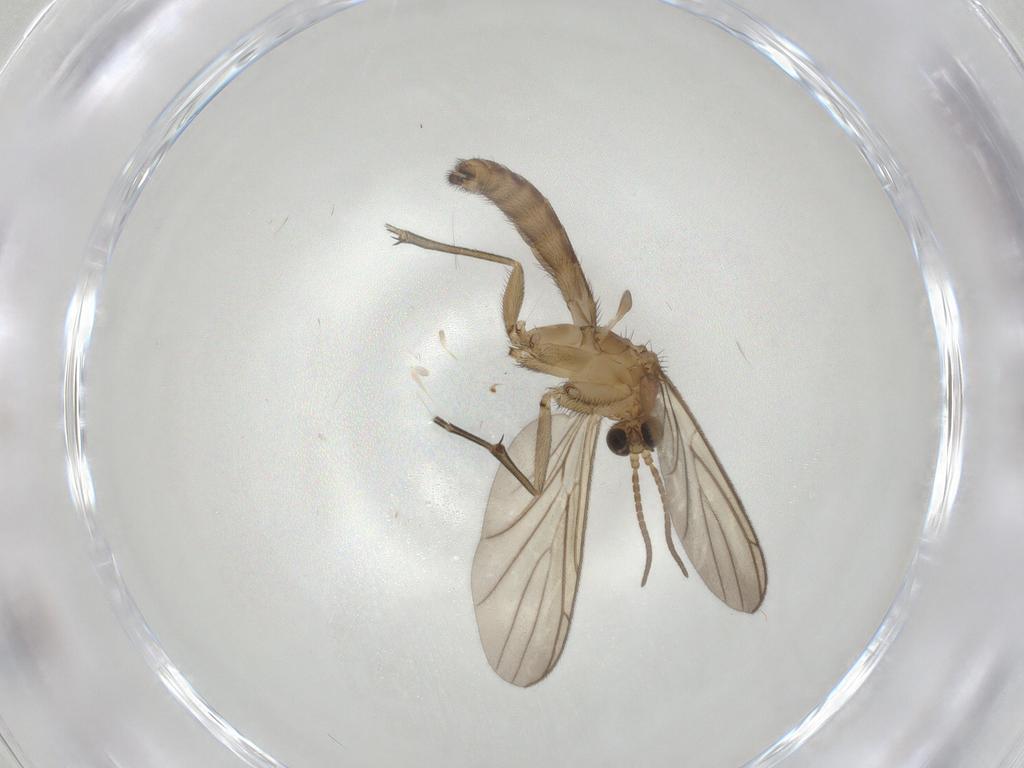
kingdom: Animalia
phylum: Arthropoda
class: Insecta
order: Diptera
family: Keroplatidae
